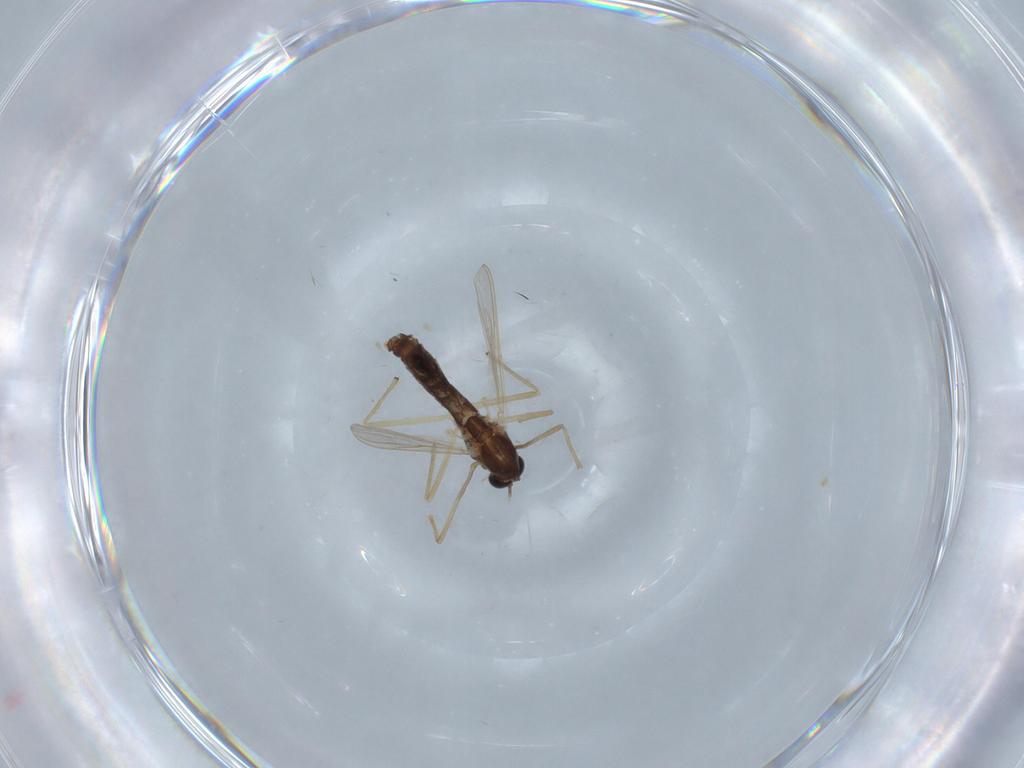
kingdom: Animalia
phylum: Arthropoda
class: Insecta
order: Diptera
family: Chironomidae
